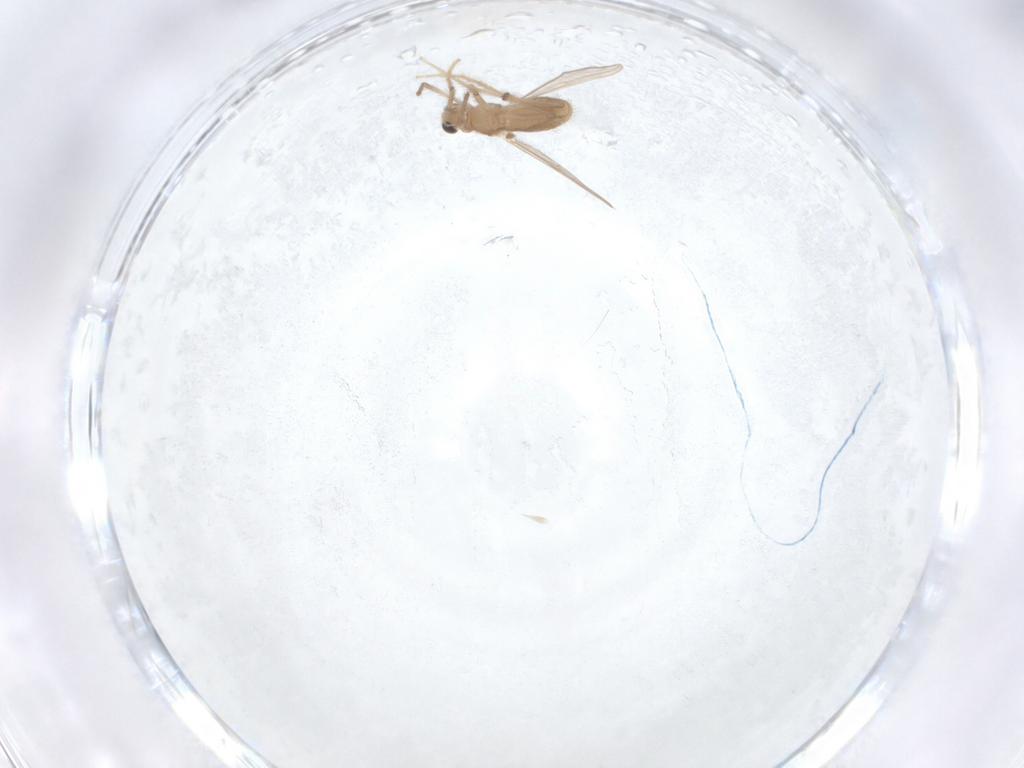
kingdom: Animalia
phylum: Arthropoda
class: Insecta
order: Diptera
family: Chironomidae
